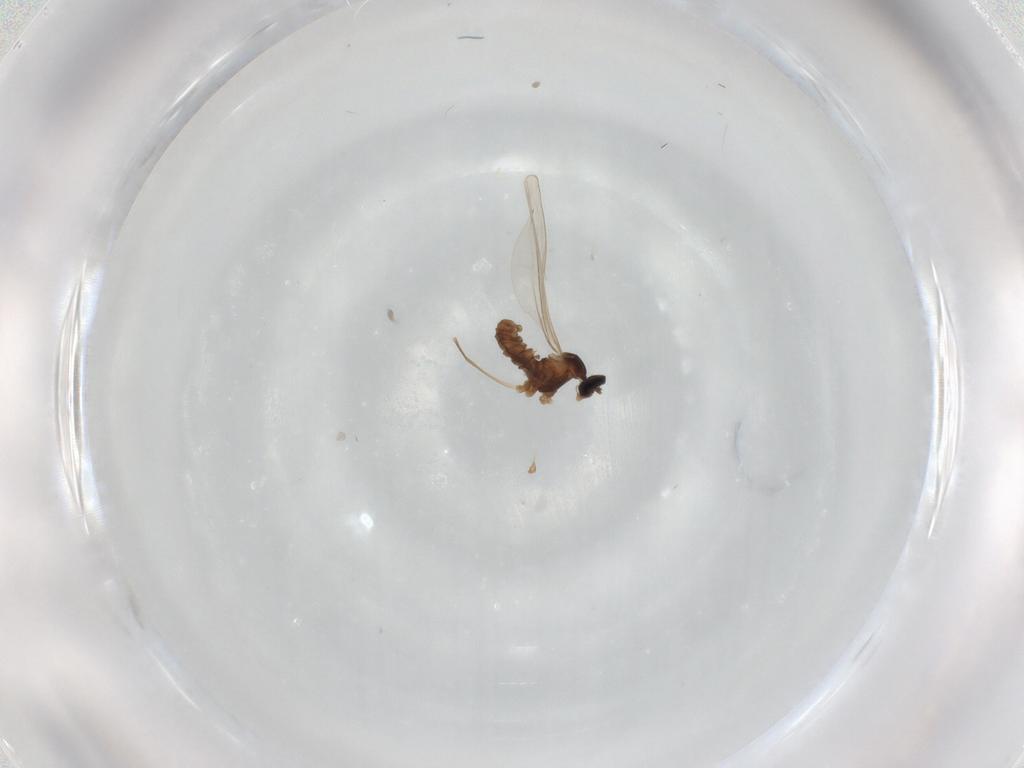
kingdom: Animalia
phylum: Arthropoda
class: Insecta
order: Diptera
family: Cecidomyiidae
